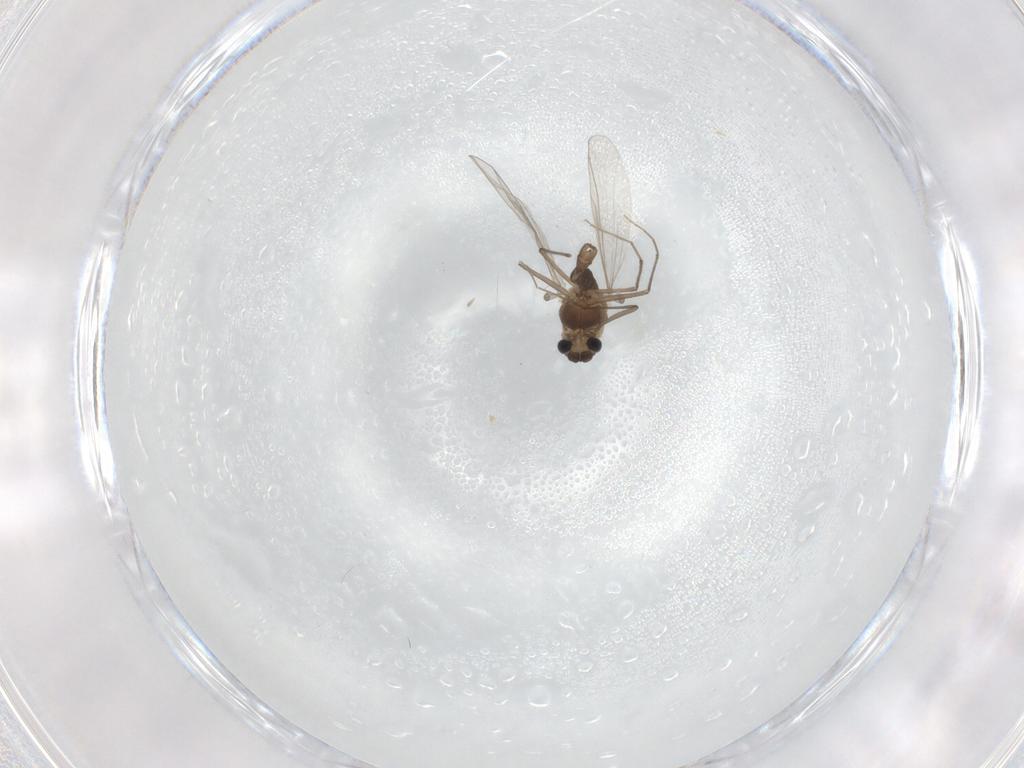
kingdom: Animalia
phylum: Arthropoda
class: Insecta
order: Diptera
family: Chironomidae
